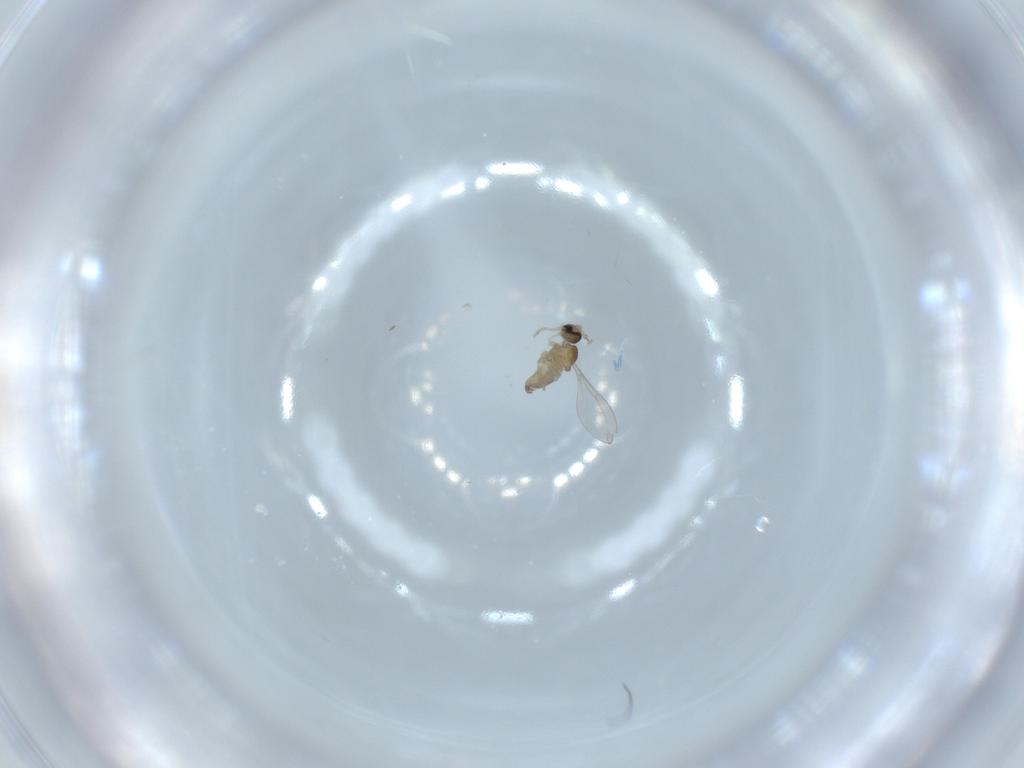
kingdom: Animalia
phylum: Arthropoda
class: Insecta
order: Diptera
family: Cecidomyiidae
